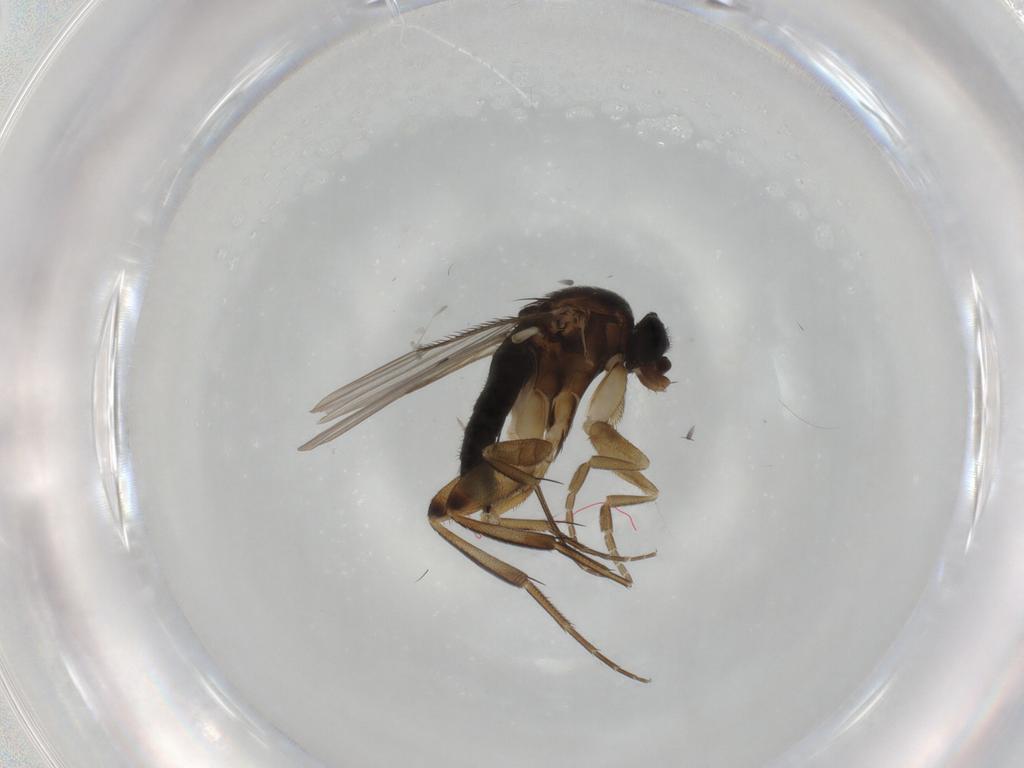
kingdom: Animalia
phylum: Arthropoda
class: Insecta
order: Diptera
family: Phoridae
